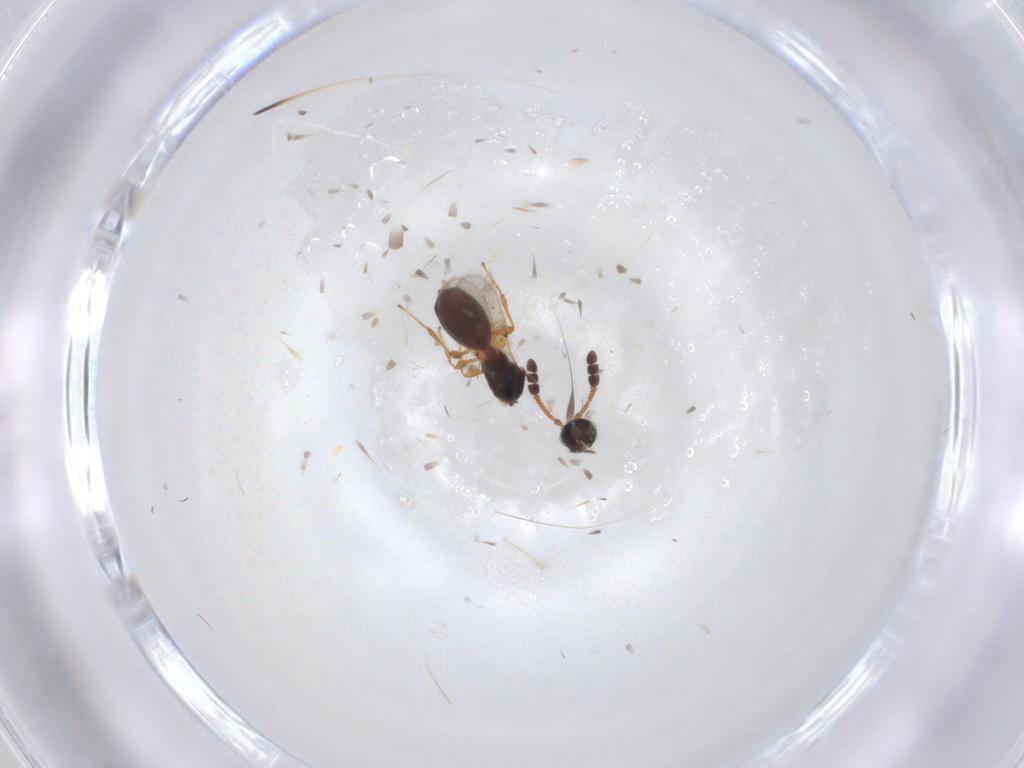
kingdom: Animalia
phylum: Arthropoda
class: Insecta
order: Hymenoptera
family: Diapriidae
